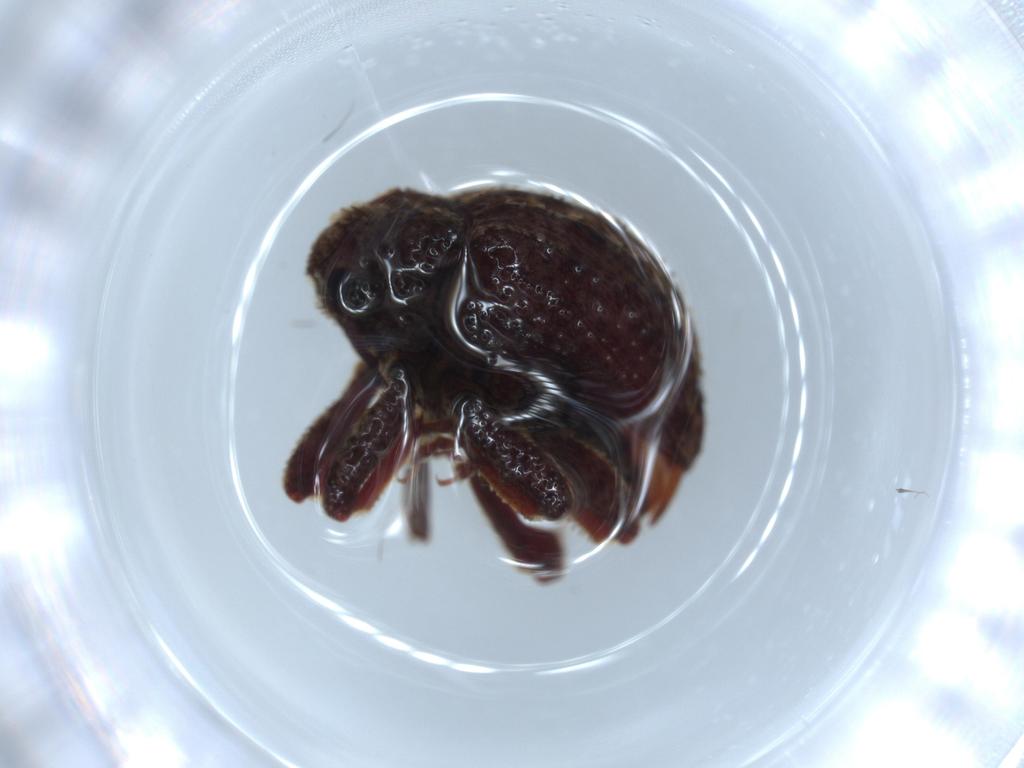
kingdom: Animalia
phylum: Arthropoda
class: Insecta
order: Coleoptera
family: Curculionidae
